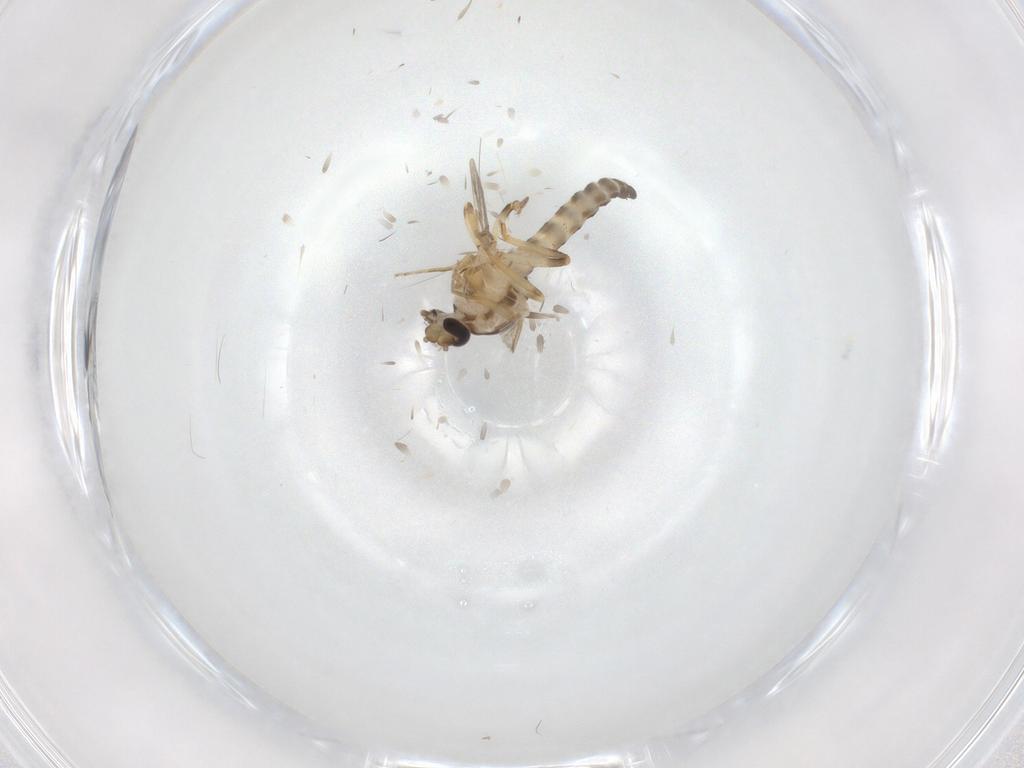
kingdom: Animalia
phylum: Arthropoda
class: Insecta
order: Diptera
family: Ceratopogonidae
